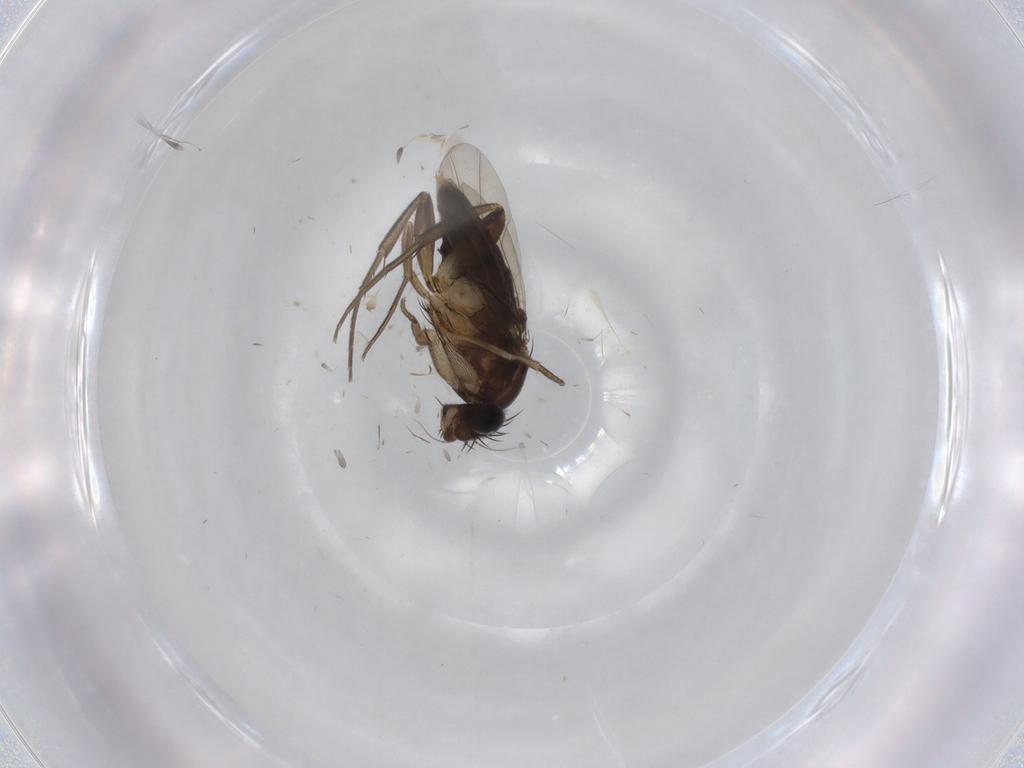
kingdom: Animalia
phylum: Arthropoda
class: Insecta
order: Diptera
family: Phoridae
